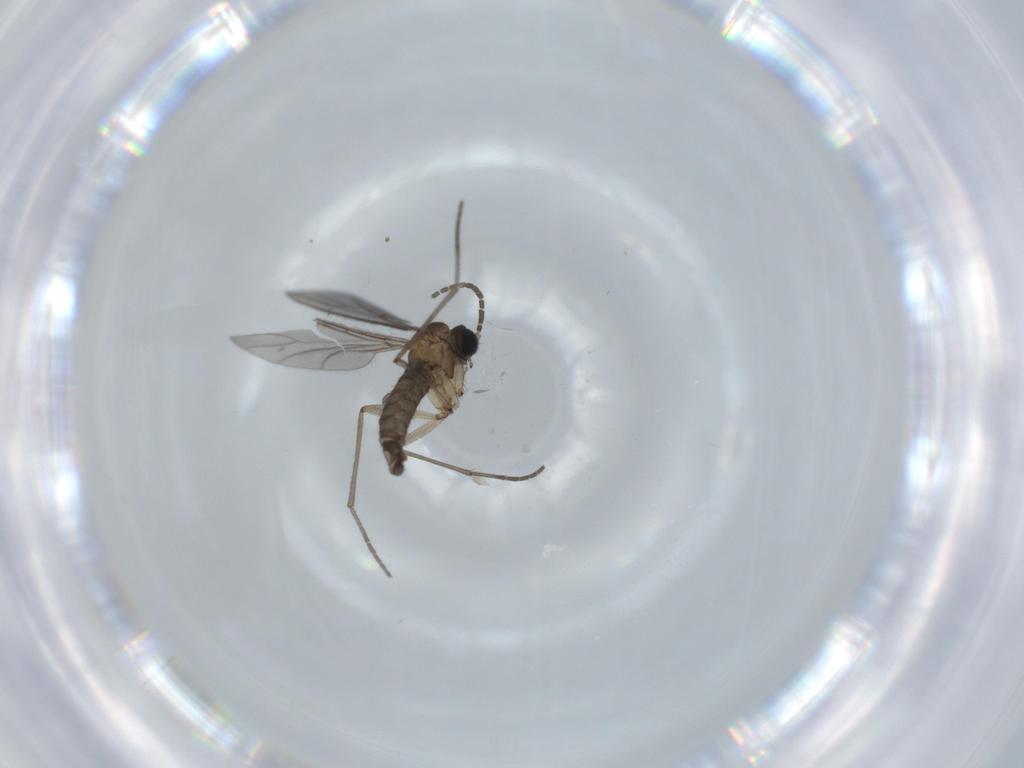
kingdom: Animalia
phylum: Arthropoda
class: Insecta
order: Diptera
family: Sciaridae
